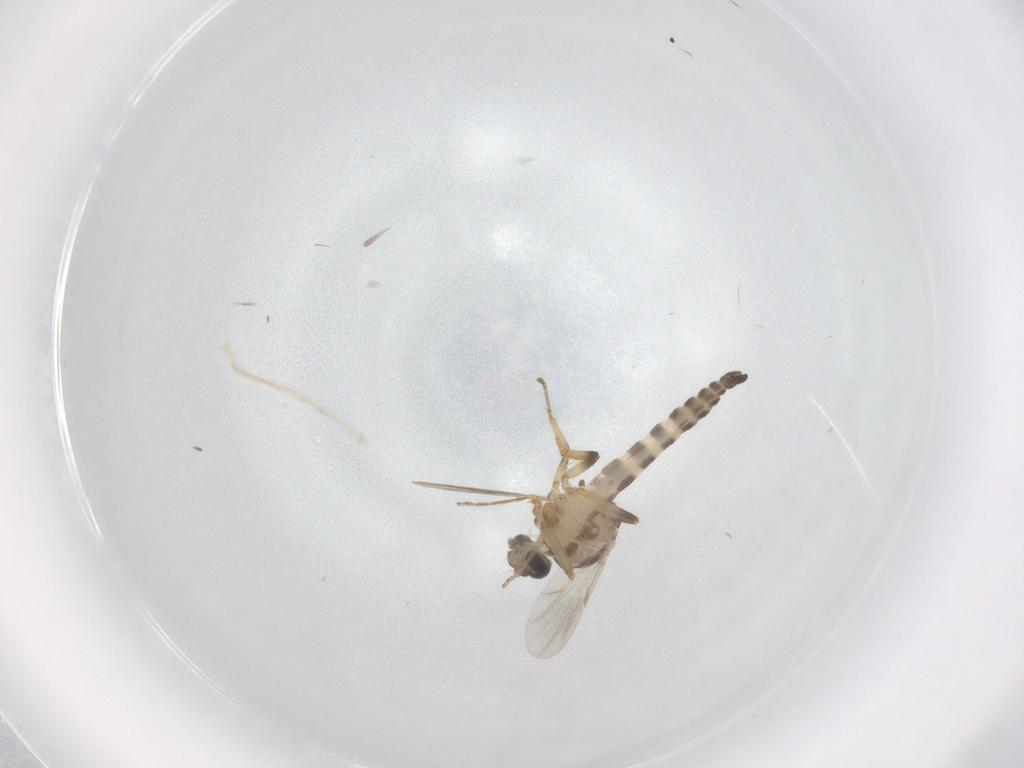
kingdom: Animalia
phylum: Arthropoda
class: Insecta
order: Diptera
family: Ceratopogonidae
